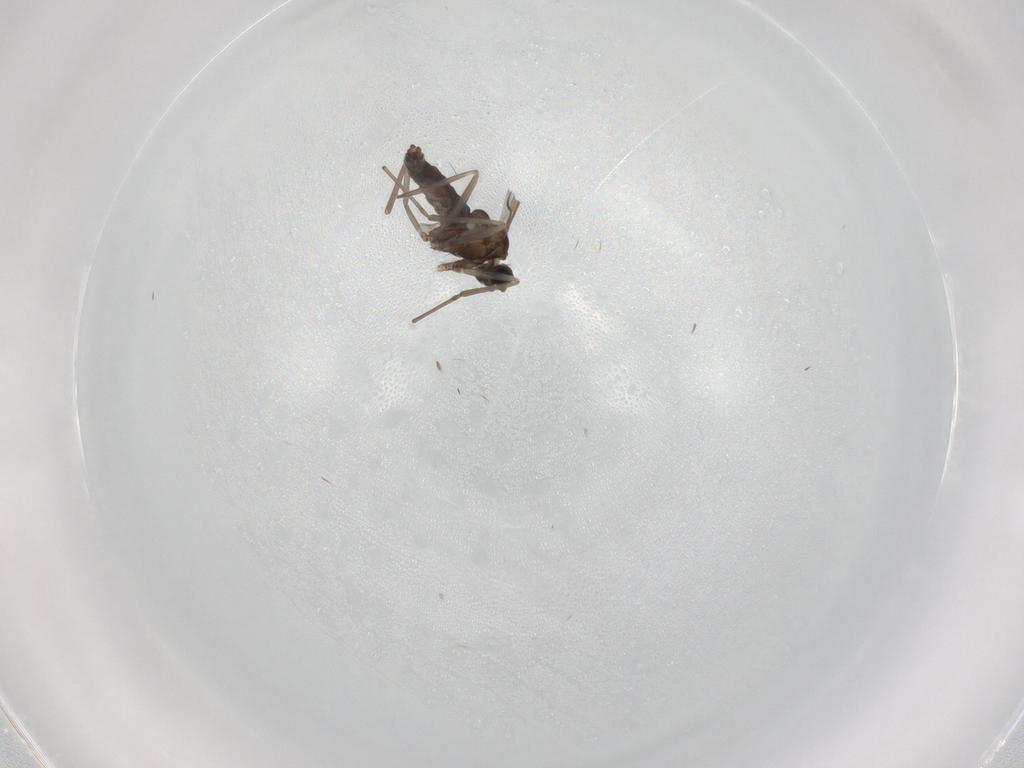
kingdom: Animalia
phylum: Arthropoda
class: Insecta
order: Diptera
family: Cecidomyiidae
